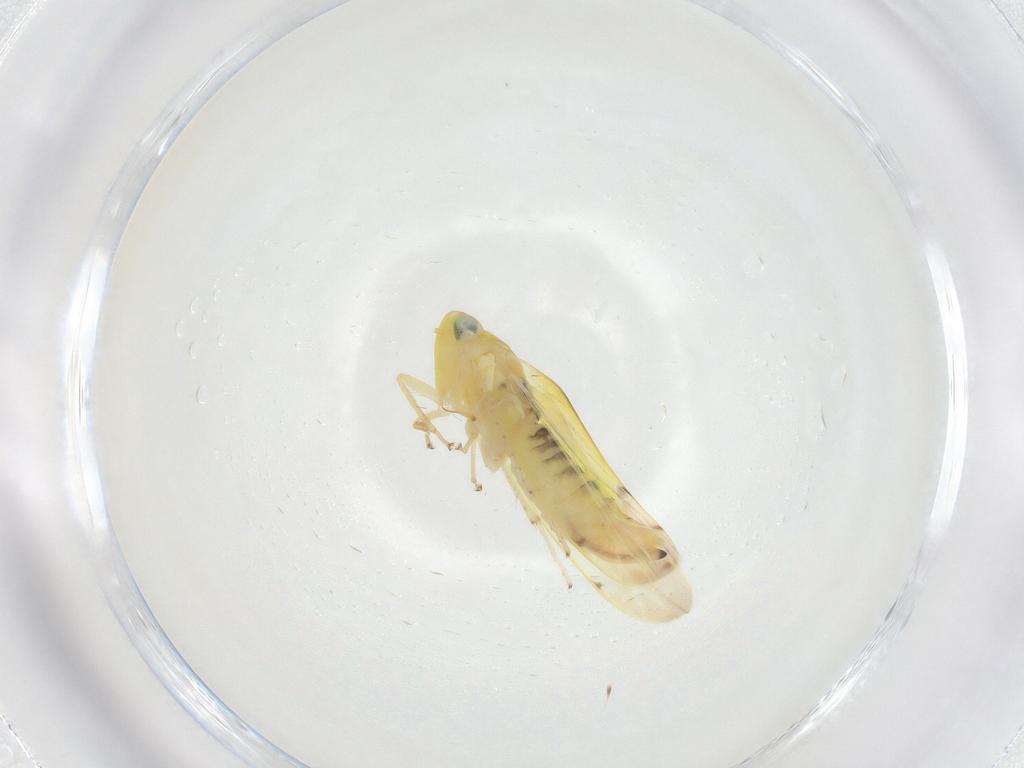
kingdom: Animalia
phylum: Arthropoda
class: Insecta
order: Hemiptera
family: Cicadellidae
